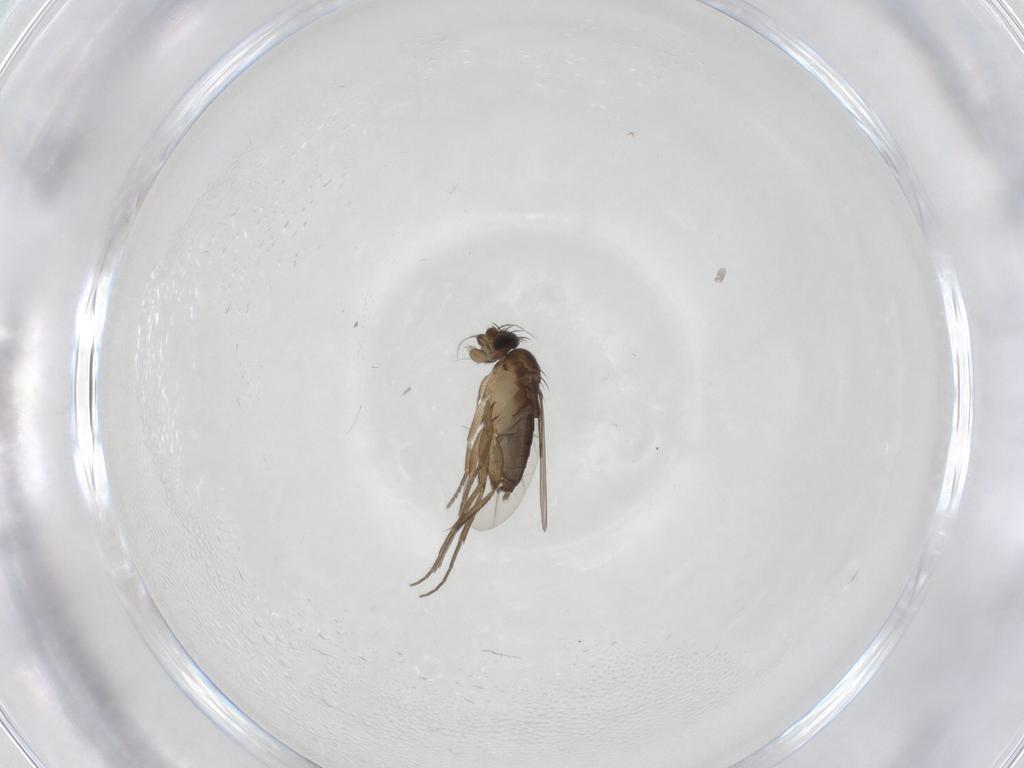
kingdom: Animalia
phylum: Arthropoda
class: Insecta
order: Diptera
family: Phoridae
